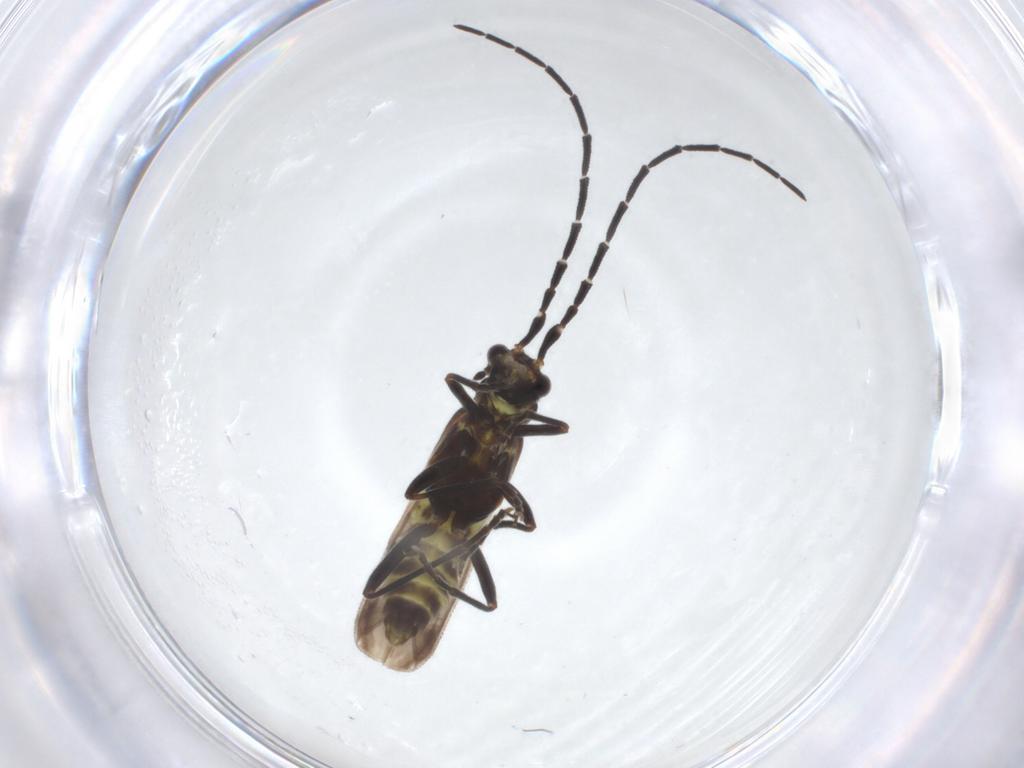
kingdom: Animalia
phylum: Arthropoda
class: Insecta
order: Coleoptera
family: Cantharidae
